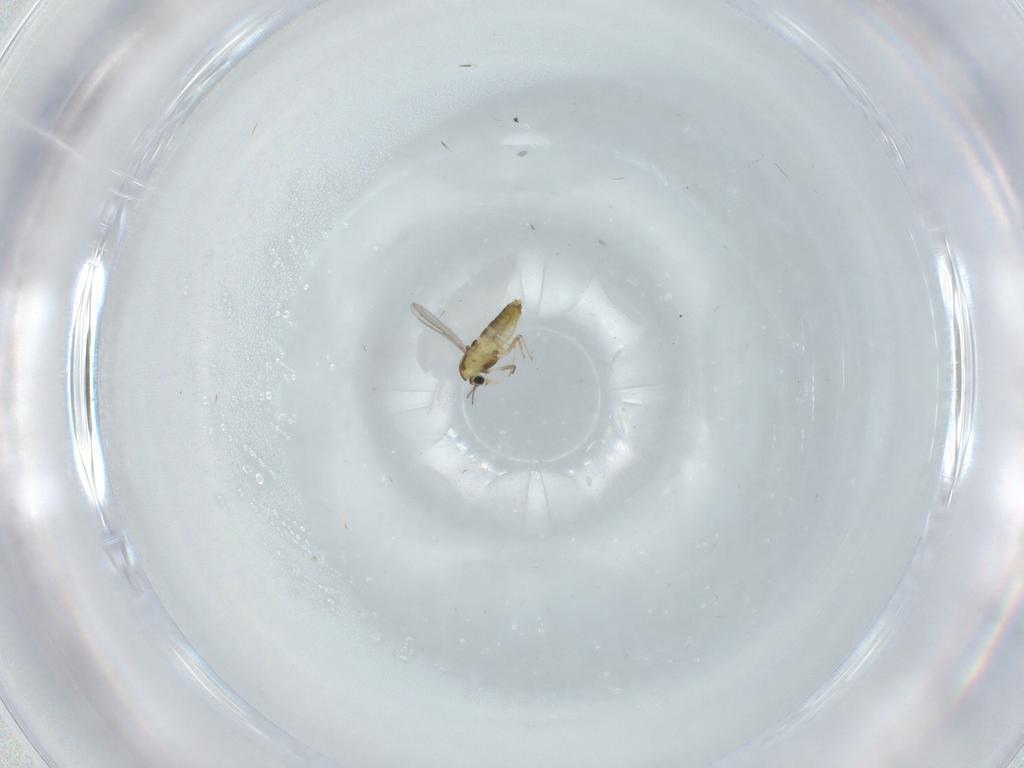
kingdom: Animalia
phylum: Arthropoda
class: Insecta
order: Diptera
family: Chironomidae
